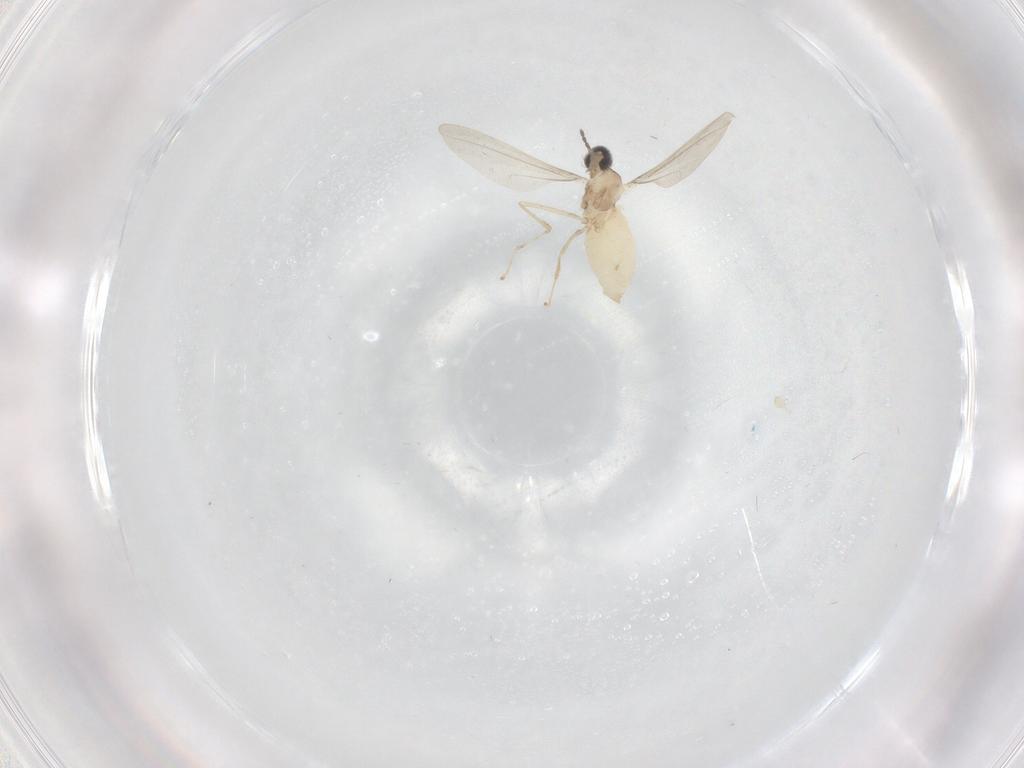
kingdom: Animalia
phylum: Arthropoda
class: Insecta
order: Diptera
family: Cecidomyiidae
